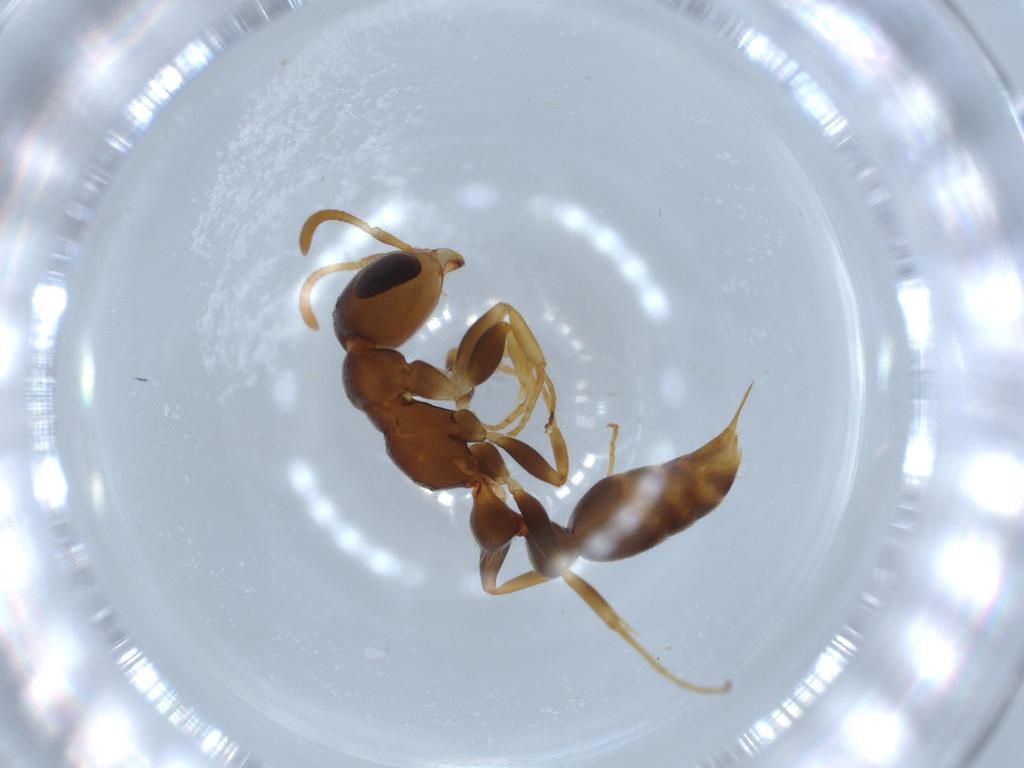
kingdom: Animalia
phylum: Arthropoda
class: Insecta
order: Hymenoptera
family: Formicidae
